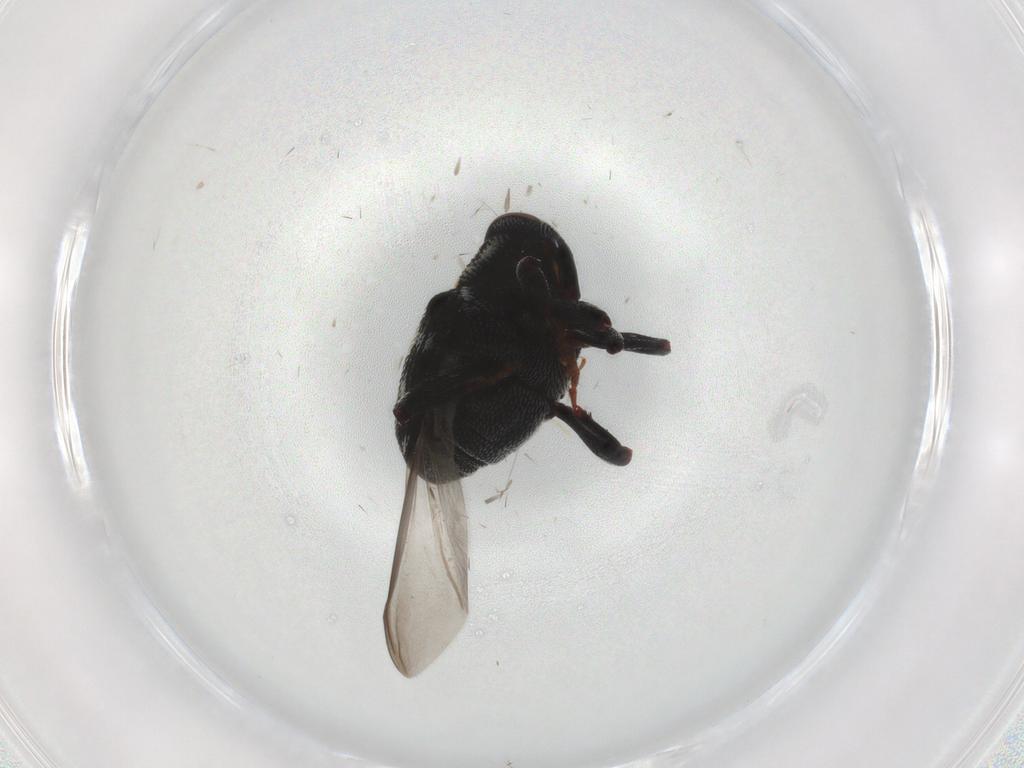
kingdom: Animalia
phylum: Arthropoda
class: Insecta
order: Coleoptera
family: Curculionidae
